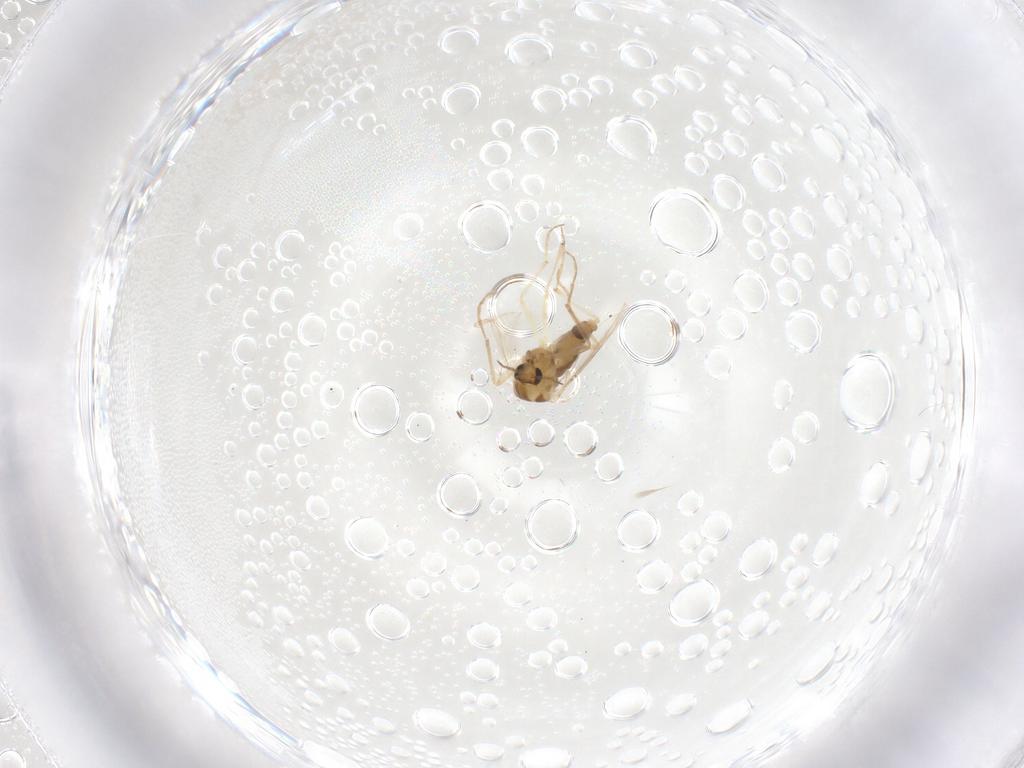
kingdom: Animalia
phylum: Arthropoda
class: Insecta
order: Diptera
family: Chironomidae
